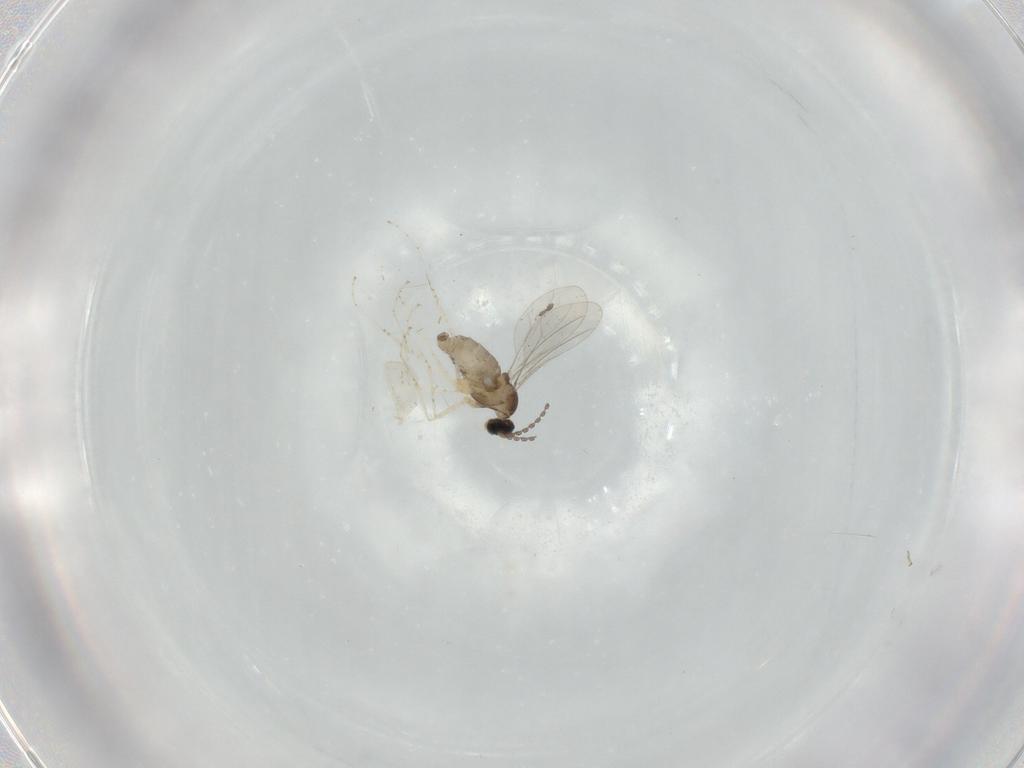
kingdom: Animalia
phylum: Arthropoda
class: Insecta
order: Diptera
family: Cecidomyiidae
